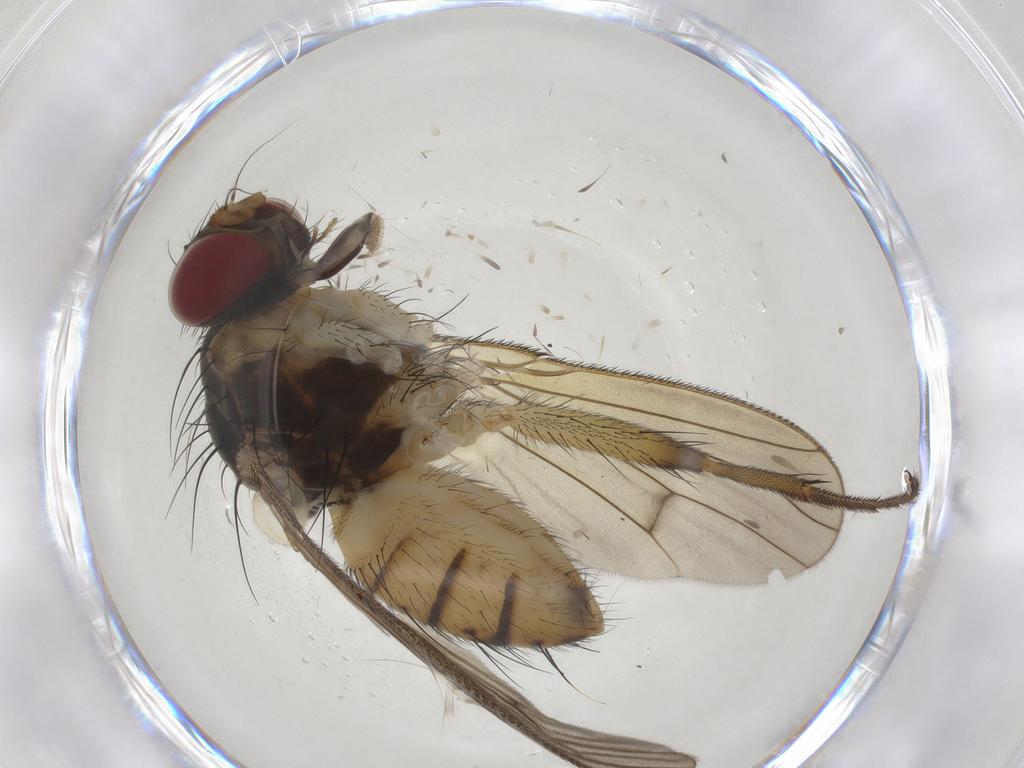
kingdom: Animalia
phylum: Arthropoda
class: Insecta
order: Diptera
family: Muscidae
